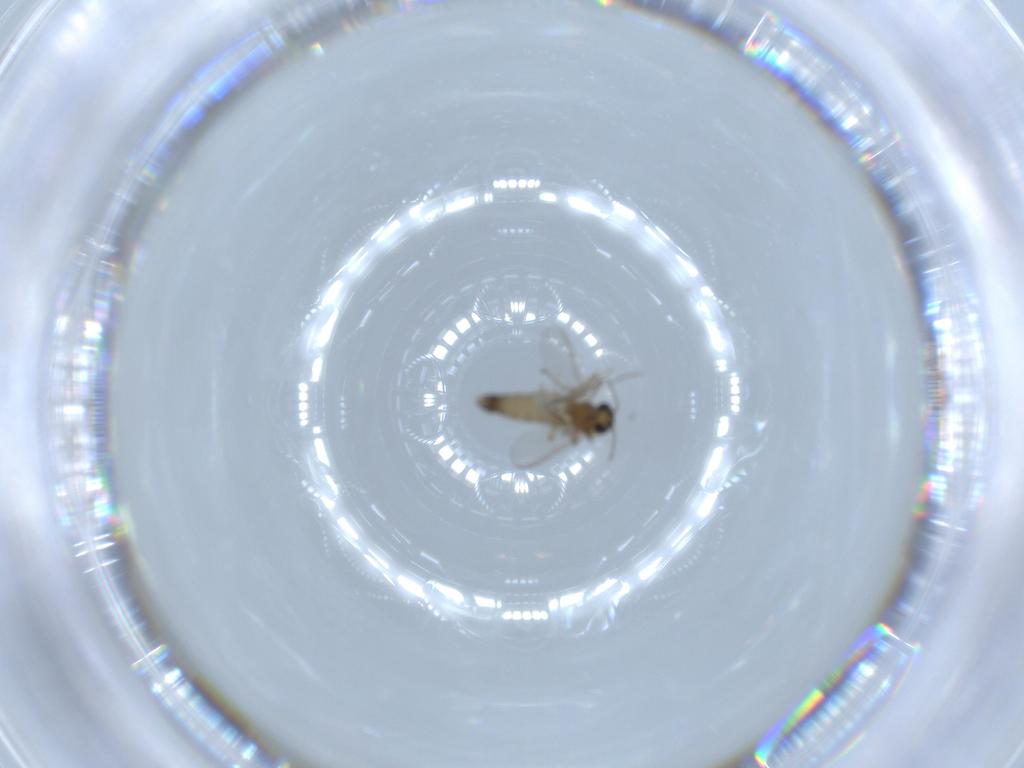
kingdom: Animalia
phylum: Arthropoda
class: Insecta
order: Diptera
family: Chironomidae
